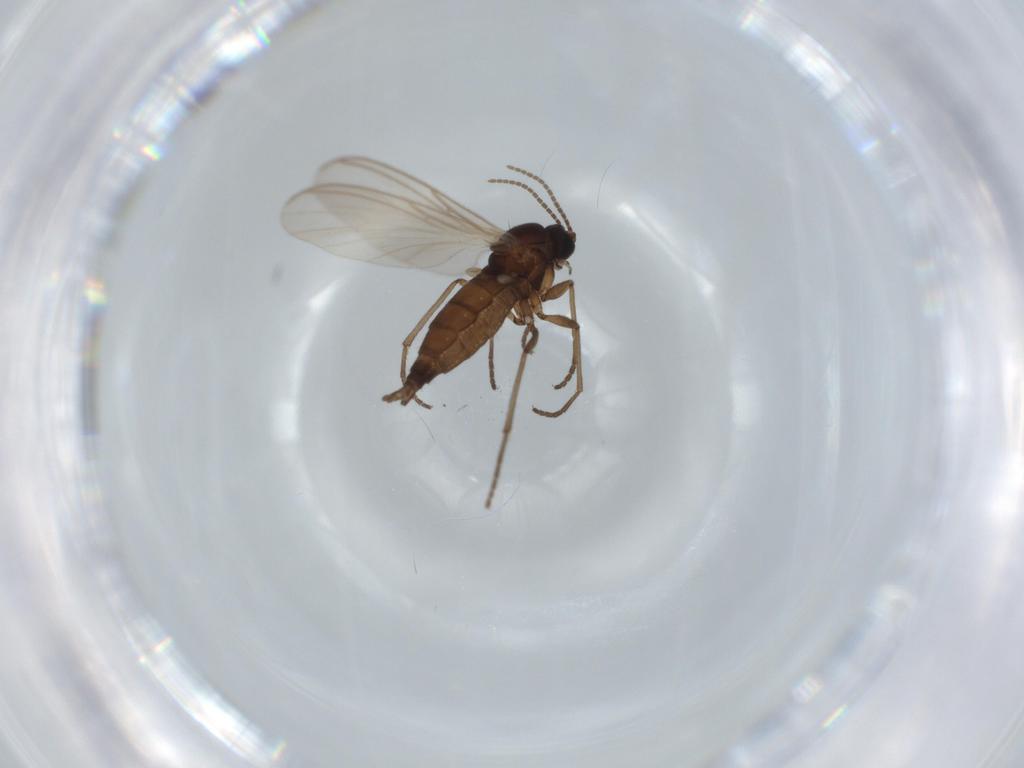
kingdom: Animalia
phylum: Arthropoda
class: Insecta
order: Diptera
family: Sciaridae
